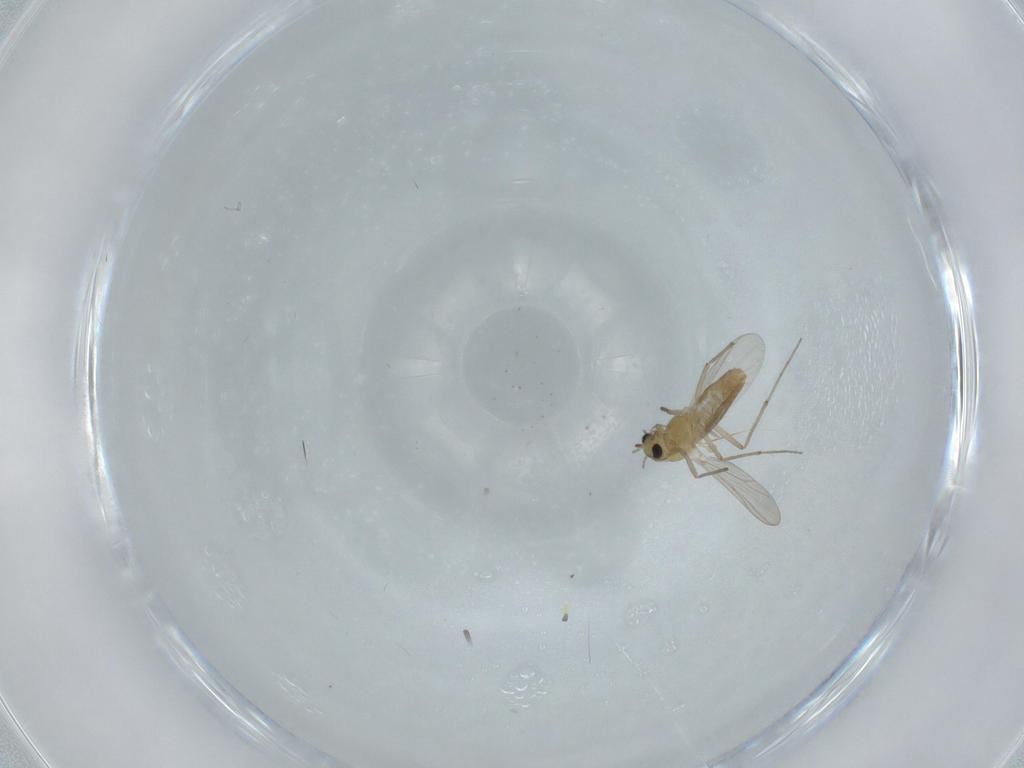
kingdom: Animalia
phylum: Arthropoda
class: Insecta
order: Diptera
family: Chironomidae
